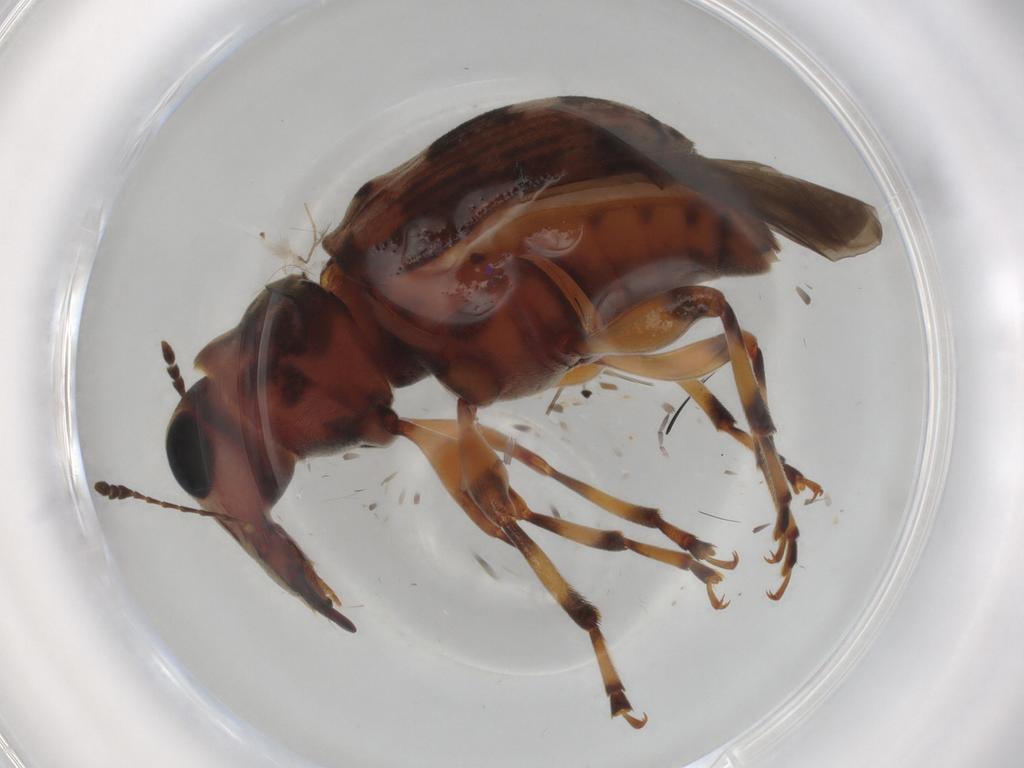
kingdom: Animalia
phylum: Arthropoda
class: Insecta
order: Coleoptera
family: Anthribidae
